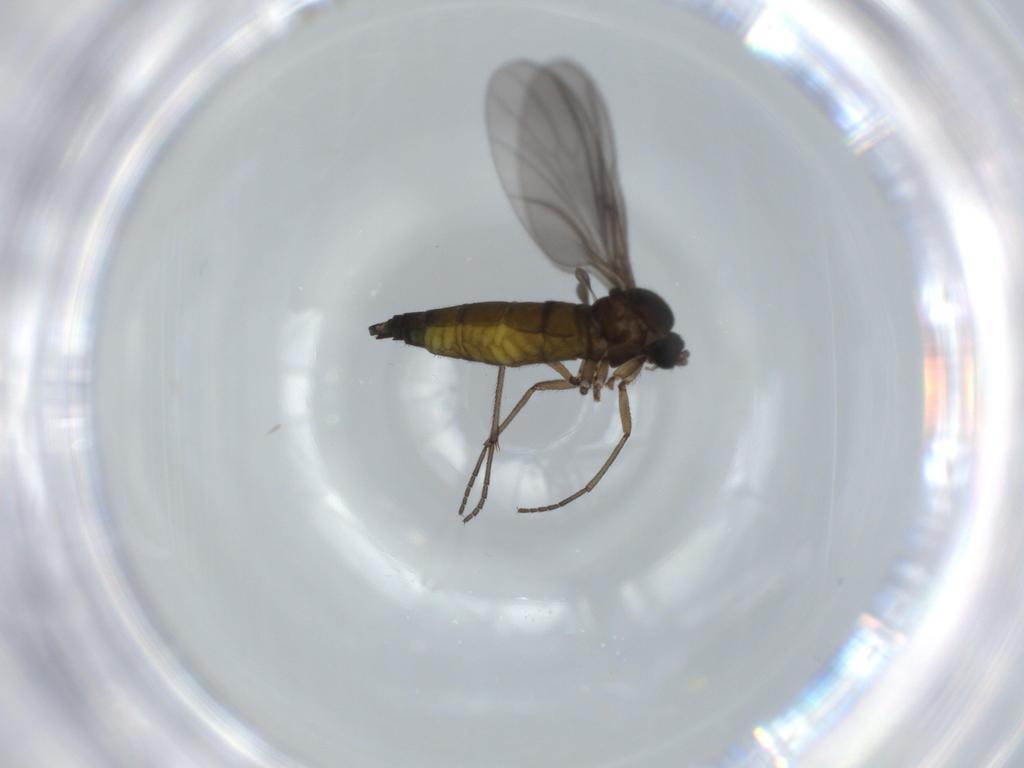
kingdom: Animalia
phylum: Arthropoda
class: Insecta
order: Diptera
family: Sciaridae
